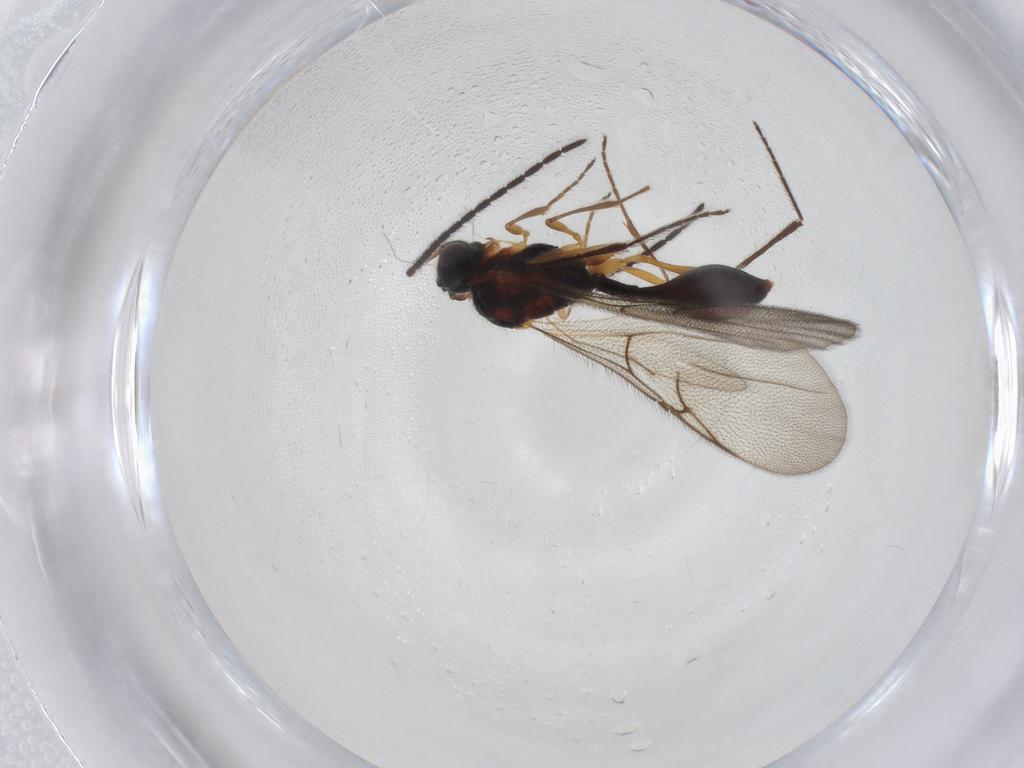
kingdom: Animalia
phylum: Arthropoda
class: Insecta
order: Hymenoptera
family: Diapriidae
